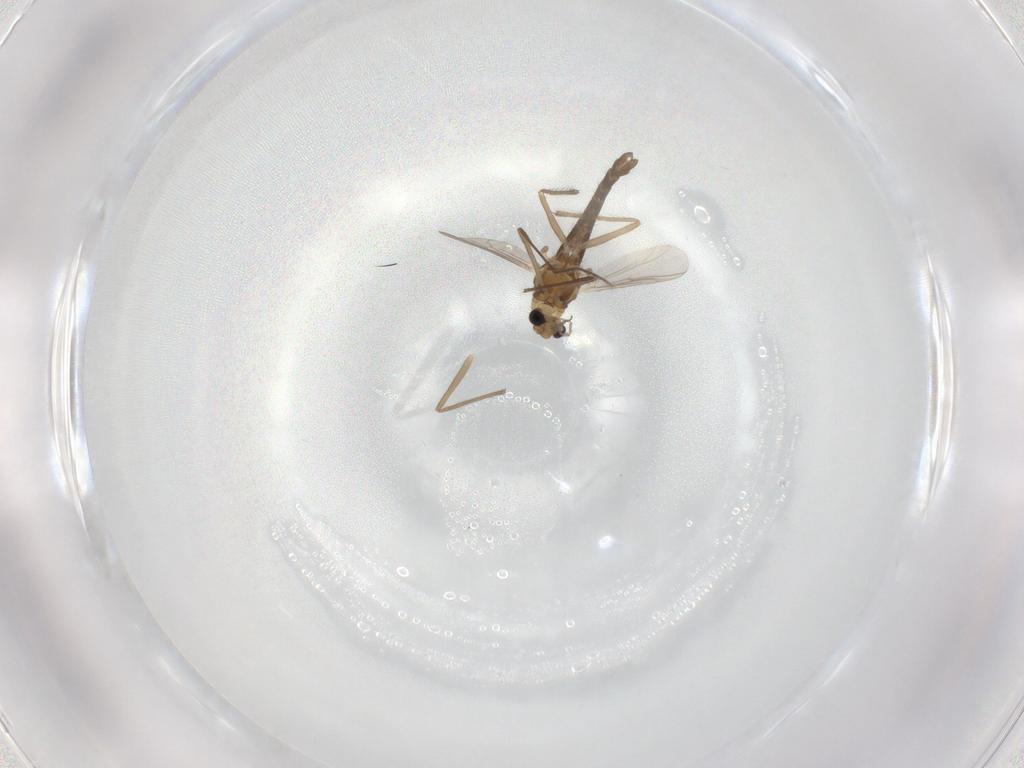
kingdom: Animalia
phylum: Arthropoda
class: Insecta
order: Diptera
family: Chironomidae
